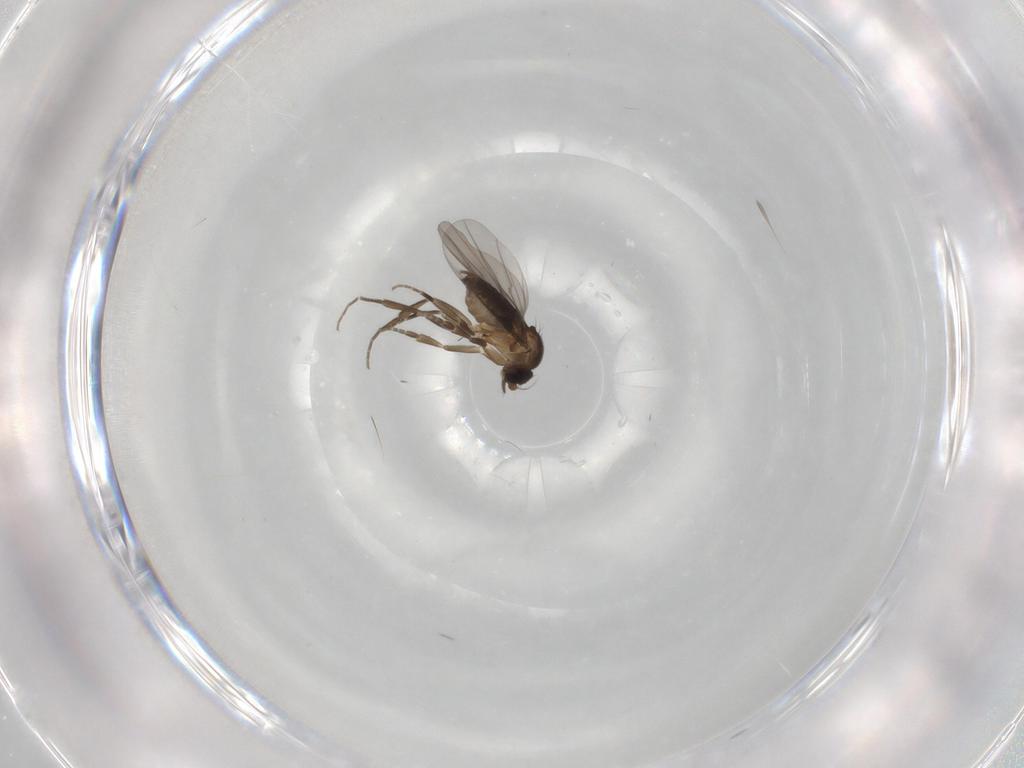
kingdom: Animalia
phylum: Arthropoda
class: Insecta
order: Diptera
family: Phoridae
